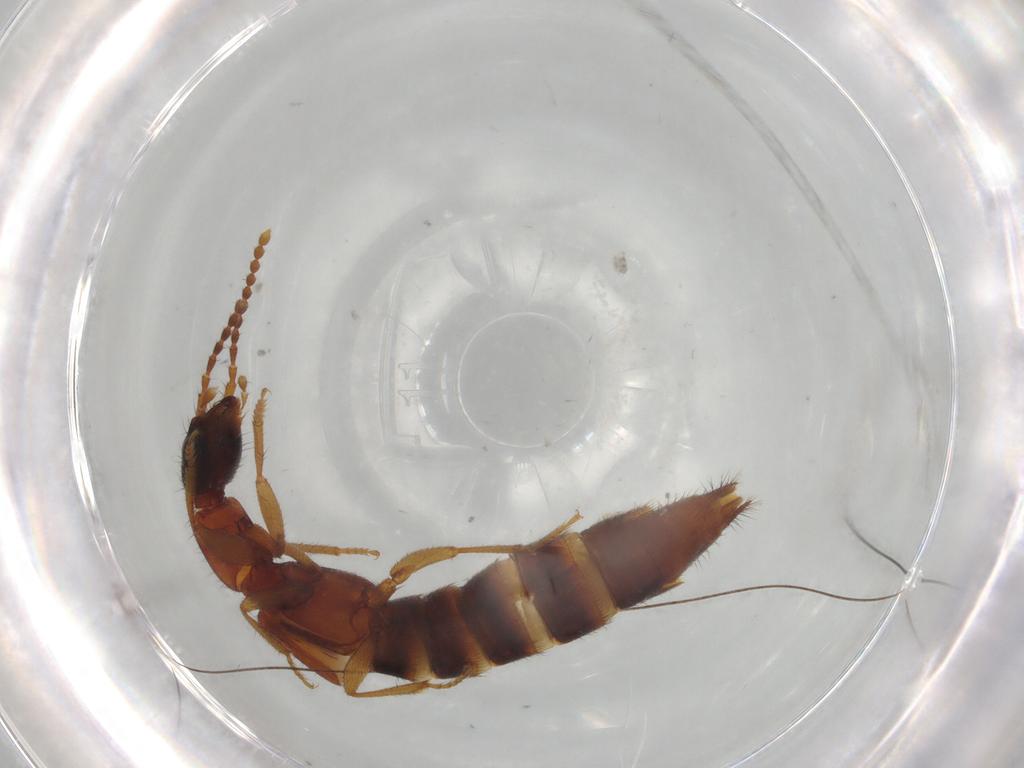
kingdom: Animalia
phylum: Arthropoda
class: Insecta
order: Coleoptera
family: Staphylinidae
